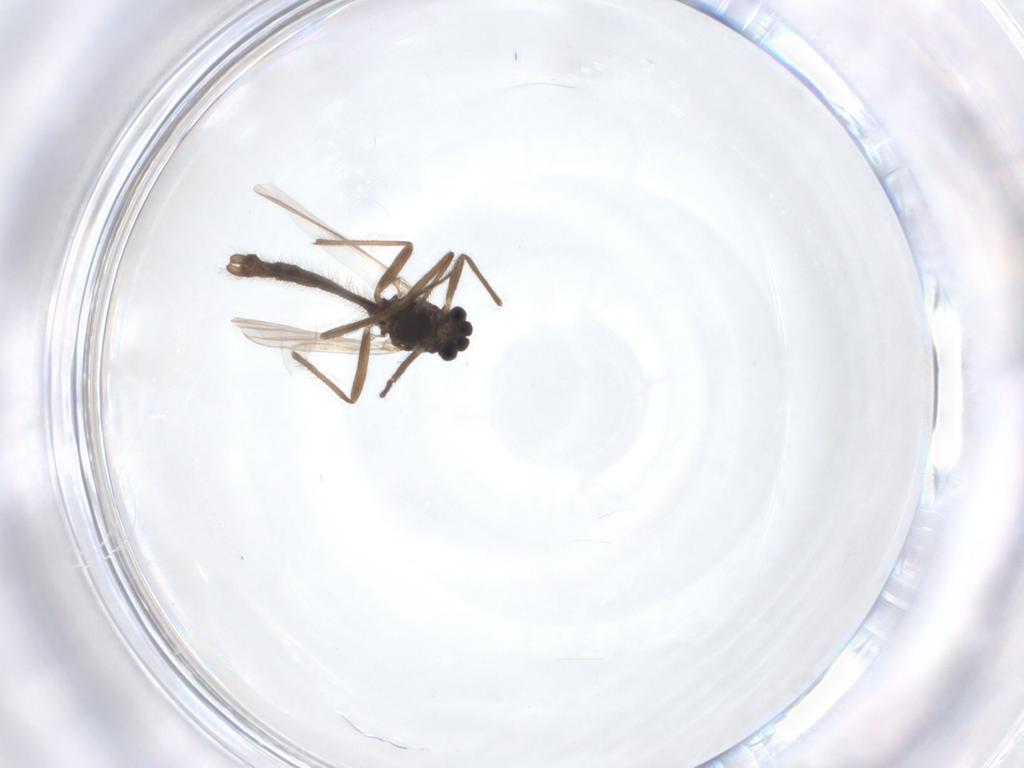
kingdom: Animalia
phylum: Arthropoda
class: Insecta
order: Diptera
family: Chironomidae
